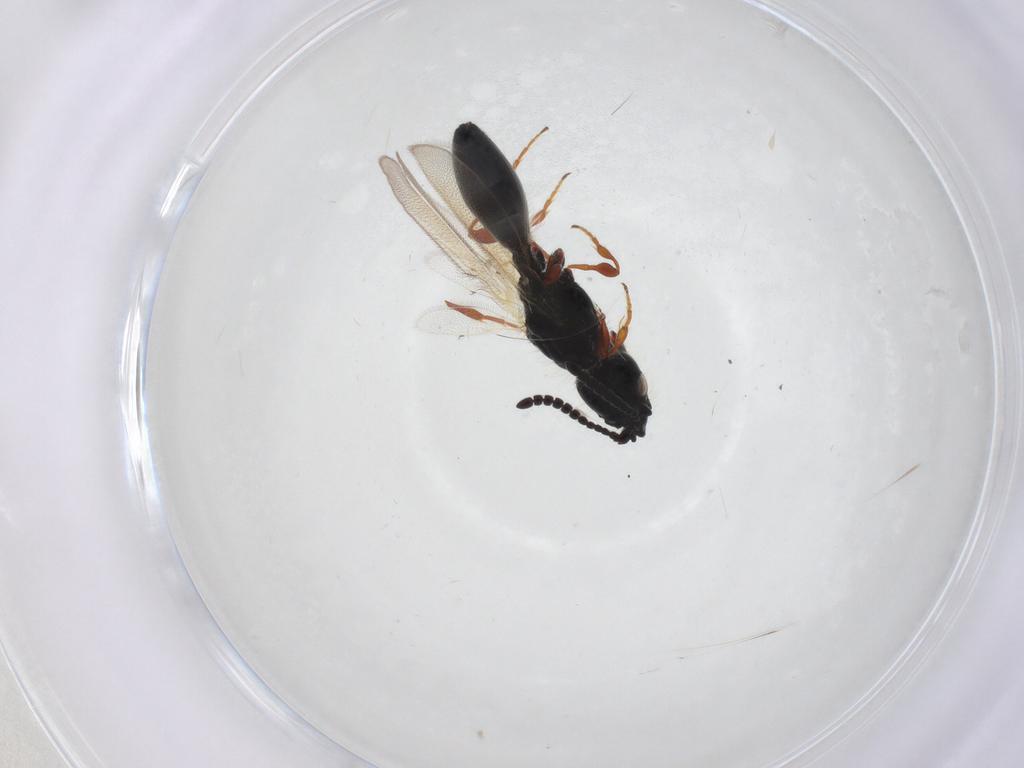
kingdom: Animalia
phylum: Arthropoda
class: Insecta
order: Hymenoptera
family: Diapriidae
